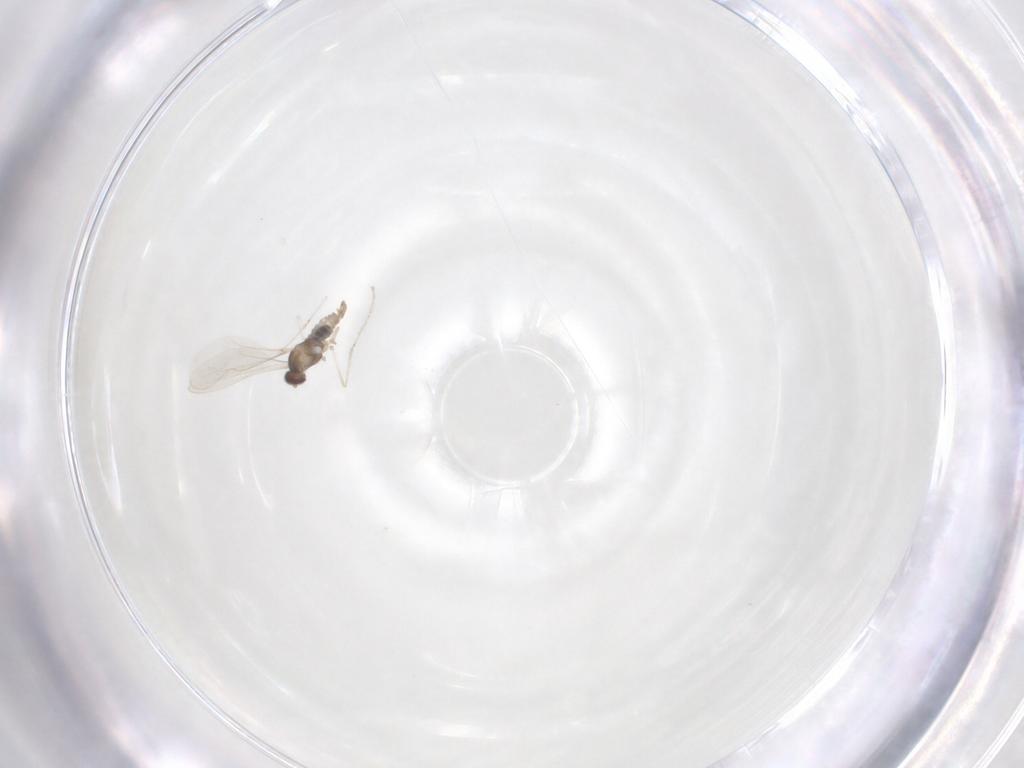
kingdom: Animalia
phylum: Arthropoda
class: Insecta
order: Diptera
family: Cecidomyiidae
